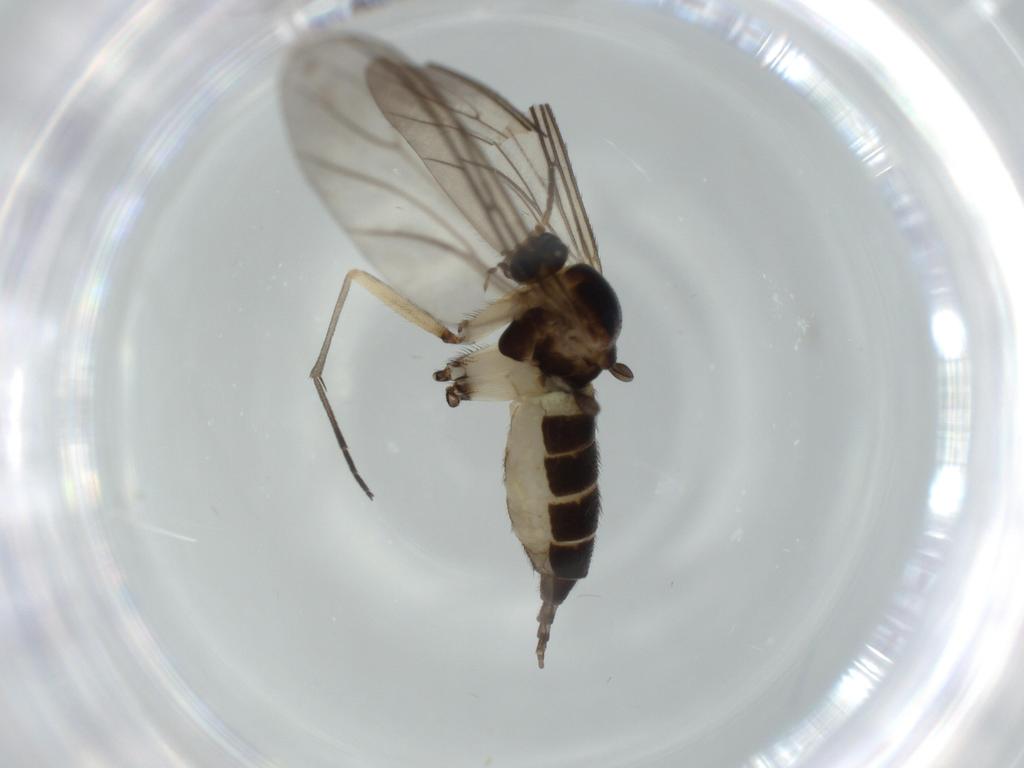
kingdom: Animalia
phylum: Arthropoda
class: Insecta
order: Diptera
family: Sciaridae
